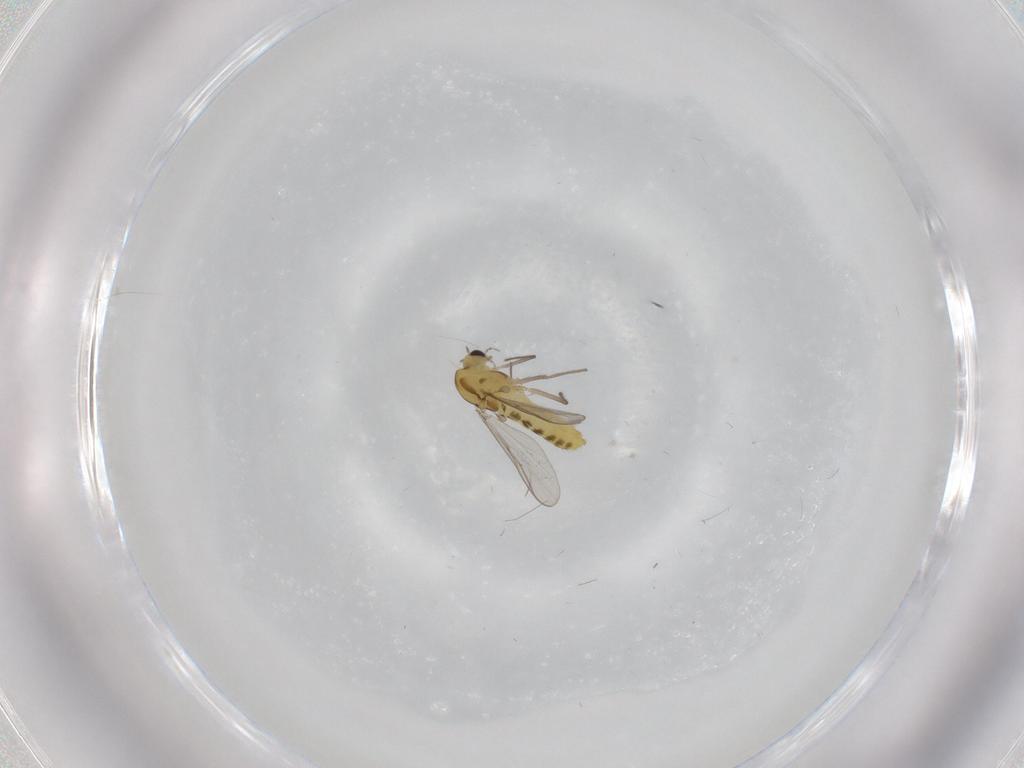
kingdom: Animalia
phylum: Arthropoda
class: Insecta
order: Diptera
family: Chironomidae
